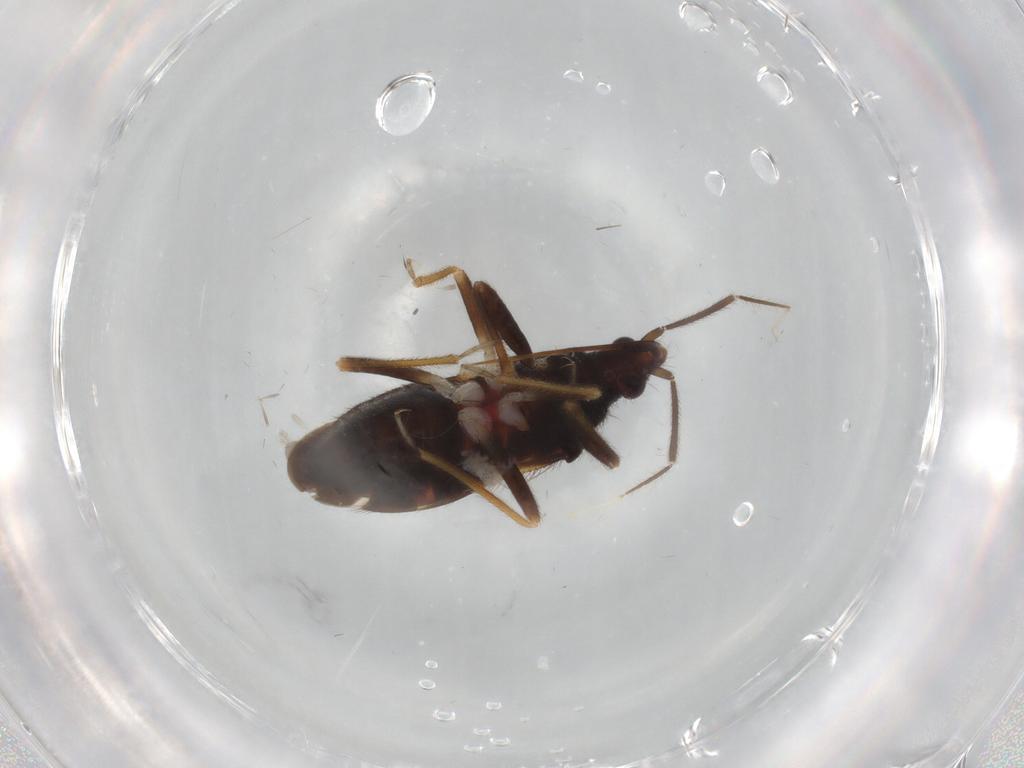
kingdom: Animalia
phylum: Arthropoda
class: Insecta
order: Hemiptera
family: Anthocoridae
